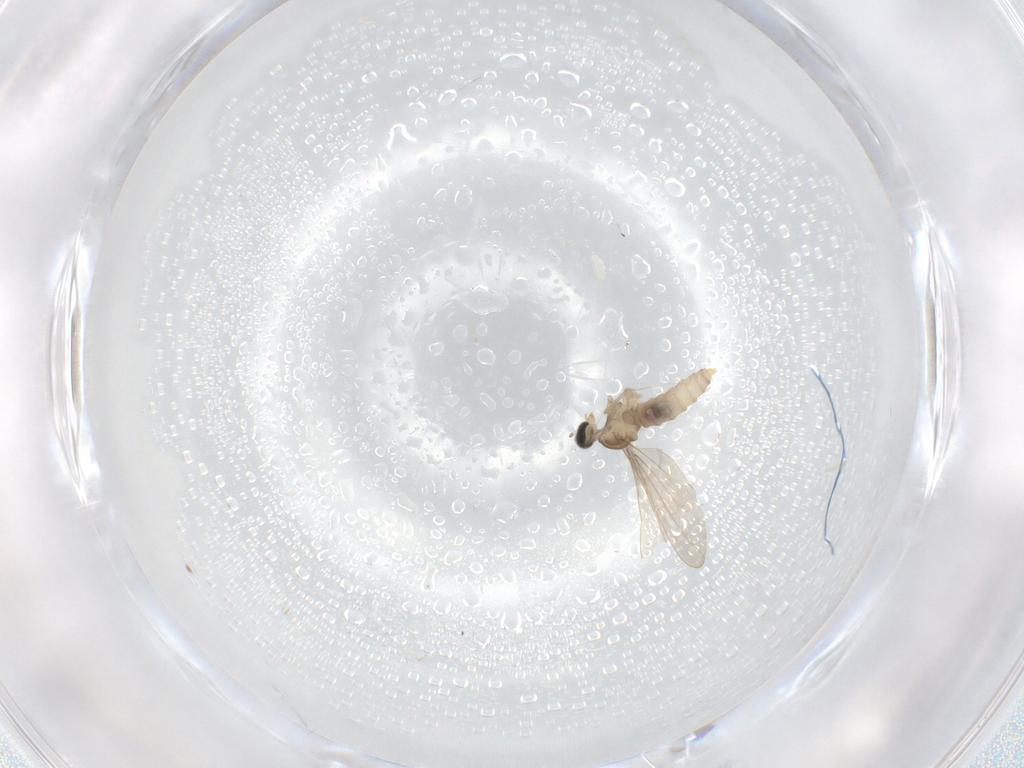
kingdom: Animalia
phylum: Arthropoda
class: Insecta
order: Diptera
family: Cecidomyiidae
